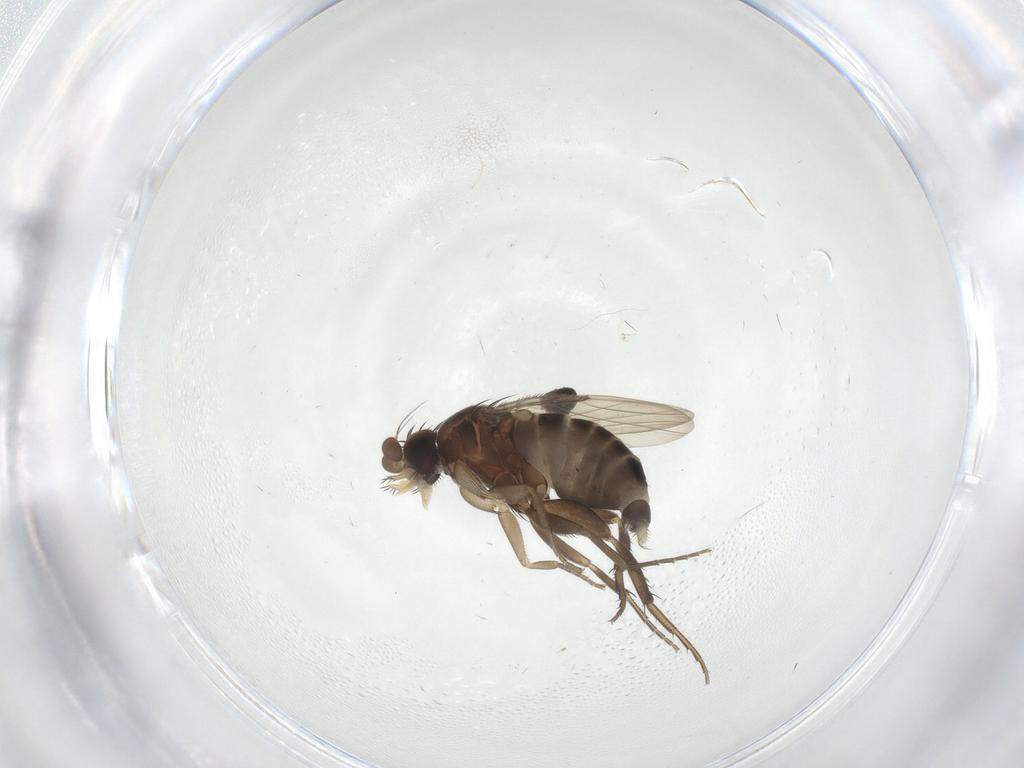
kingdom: Animalia
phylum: Arthropoda
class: Insecta
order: Diptera
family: Phoridae
